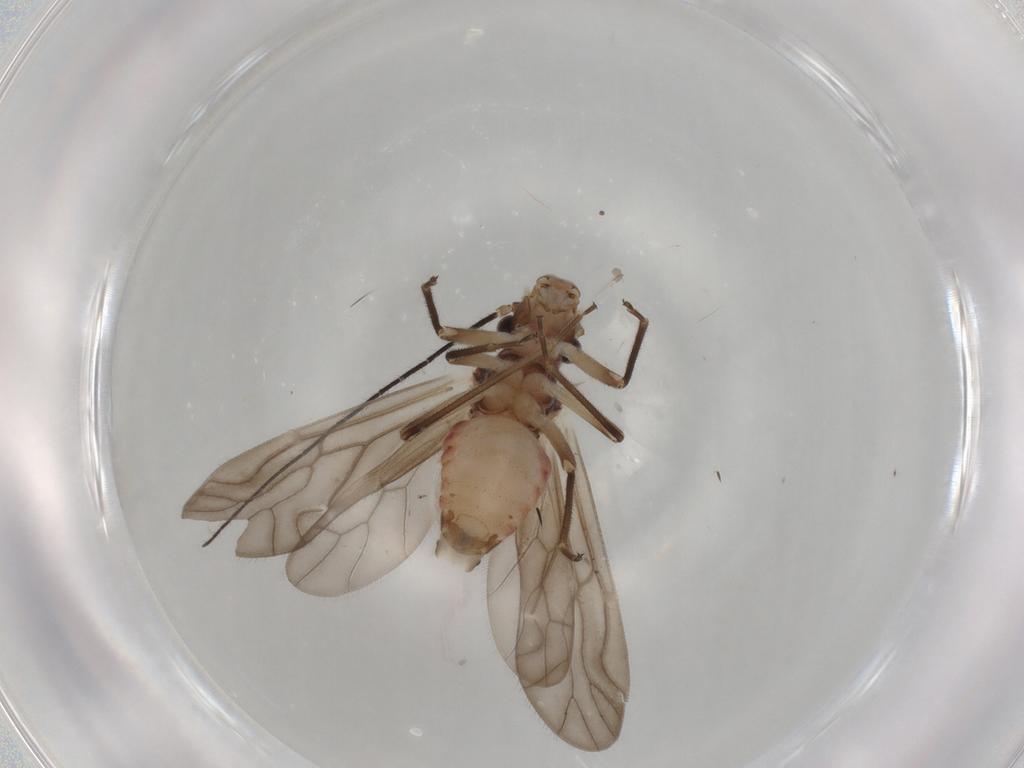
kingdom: Animalia
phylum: Arthropoda
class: Insecta
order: Psocodea
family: Caeciliusidae
